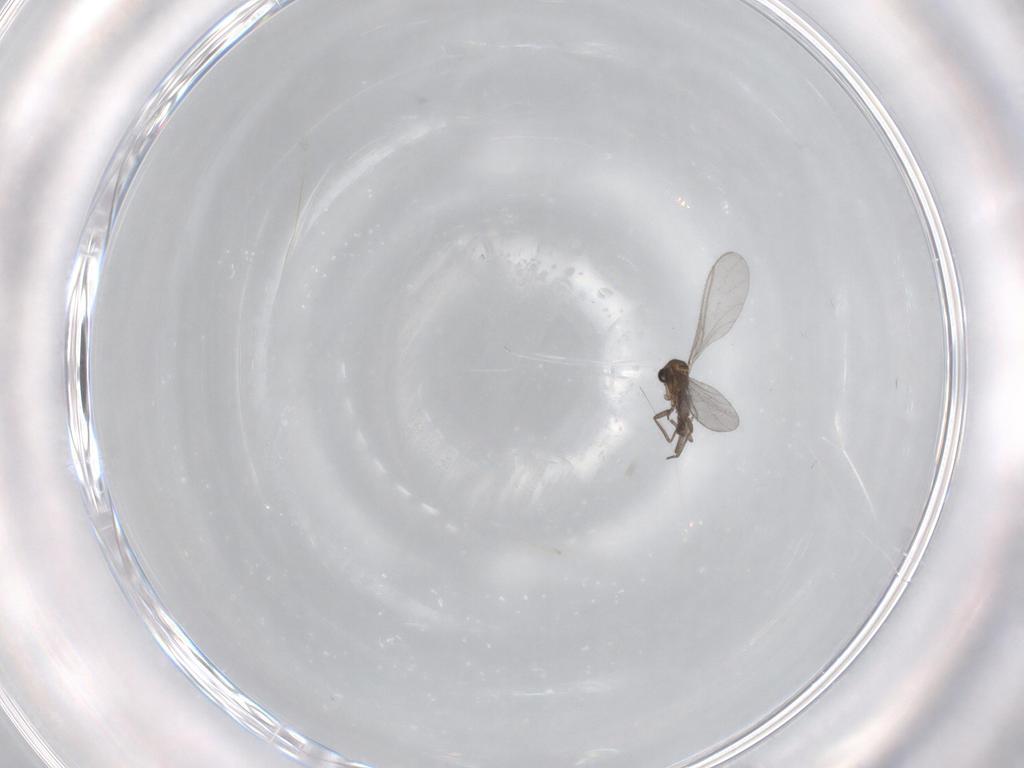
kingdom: Animalia
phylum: Arthropoda
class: Insecta
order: Diptera
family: Sciaridae
